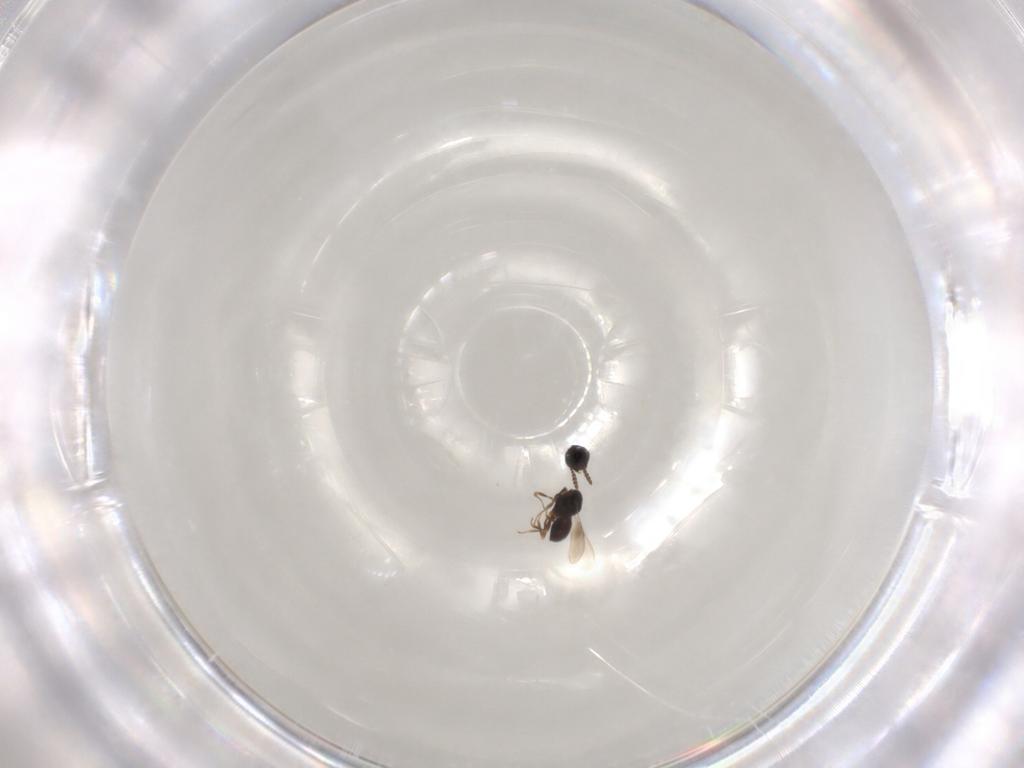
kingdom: Animalia
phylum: Arthropoda
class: Insecta
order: Hymenoptera
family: Scelionidae
